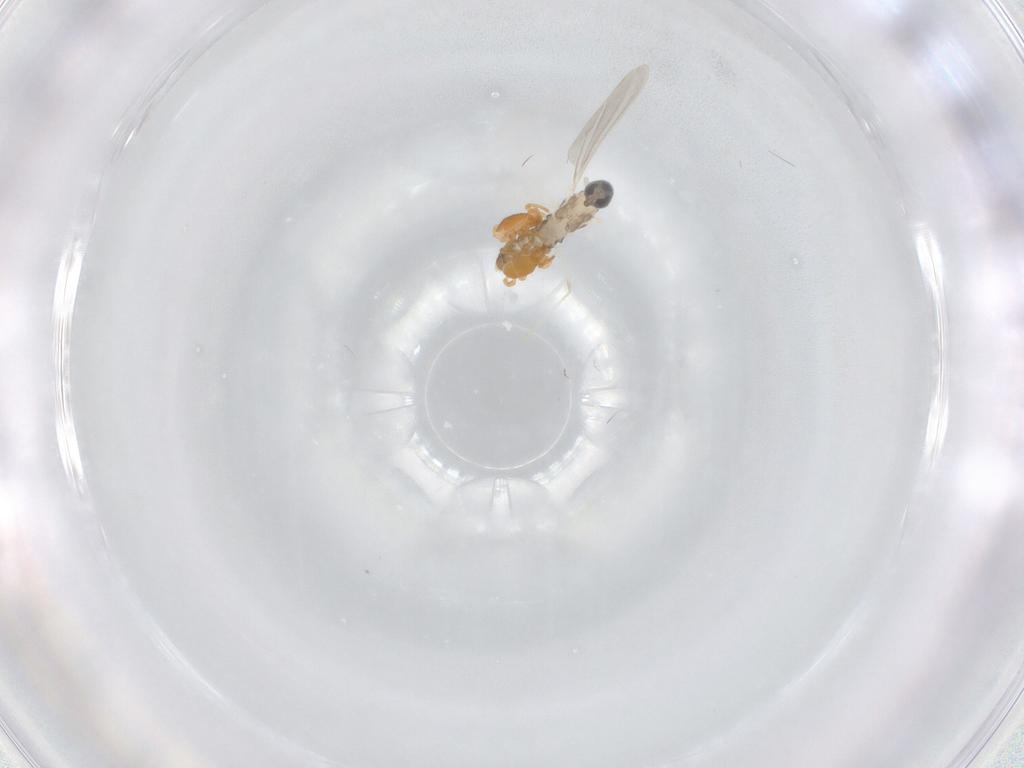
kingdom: Animalia
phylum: Arthropoda
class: Insecta
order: Diptera
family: Cecidomyiidae
